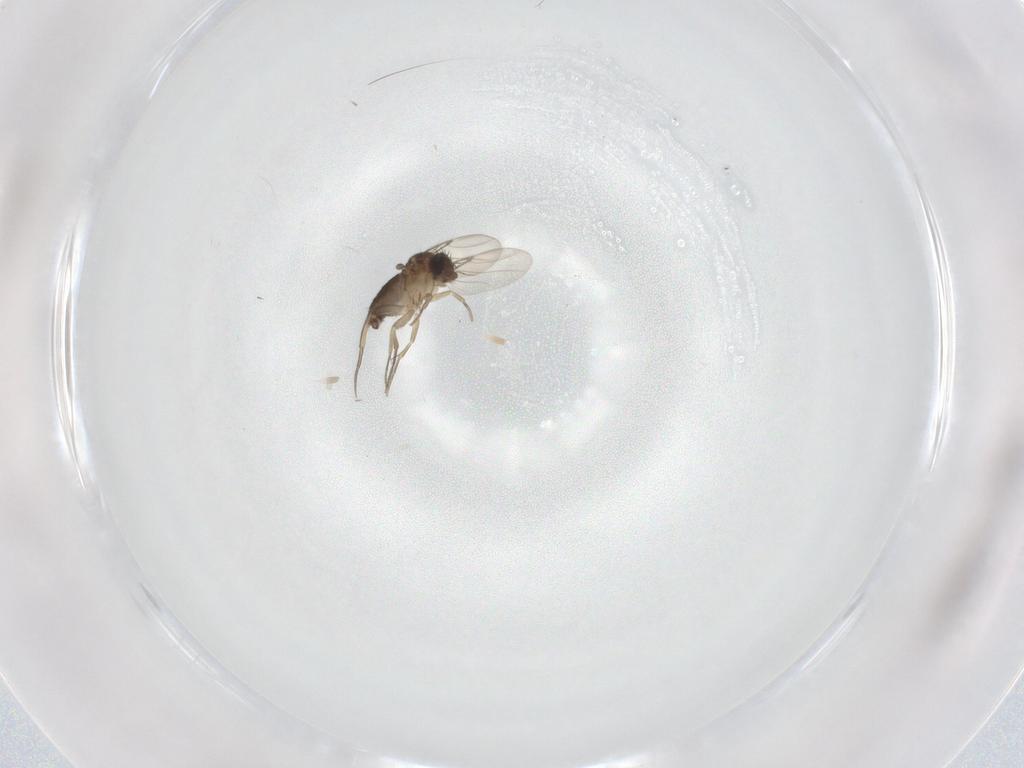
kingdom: Animalia
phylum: Arthropoda
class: Insecta
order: Diptera
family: Phoridae
